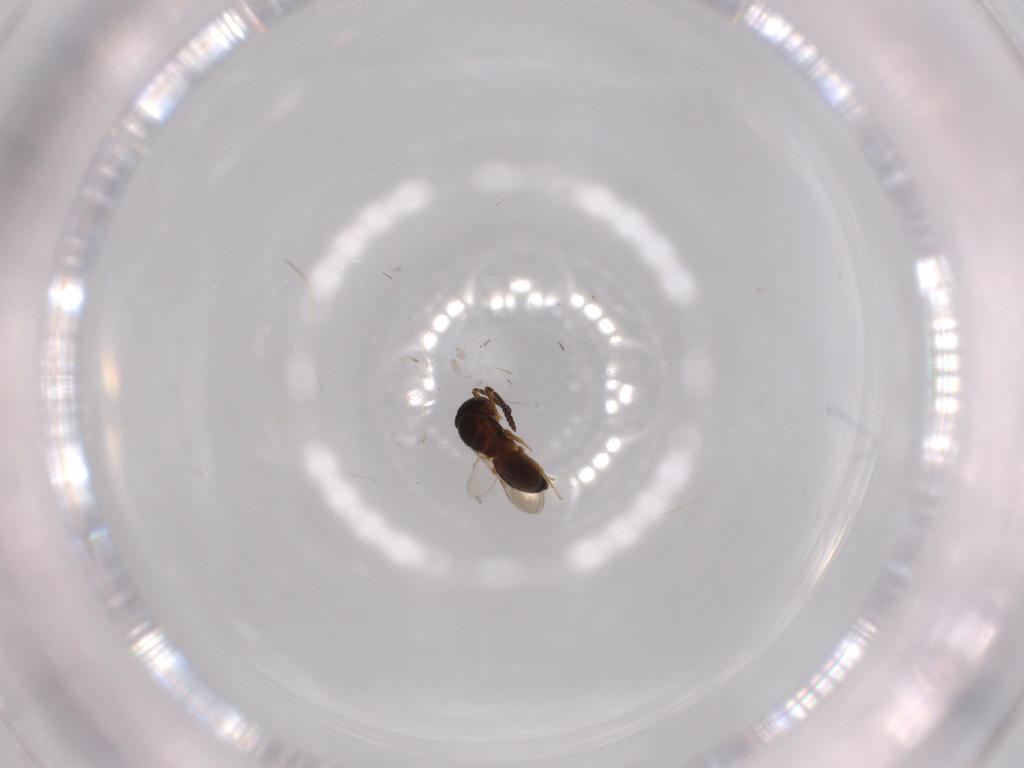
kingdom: Animalia
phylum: Arthropoda
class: Insecta
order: Hymenoptera
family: Scelionidae
